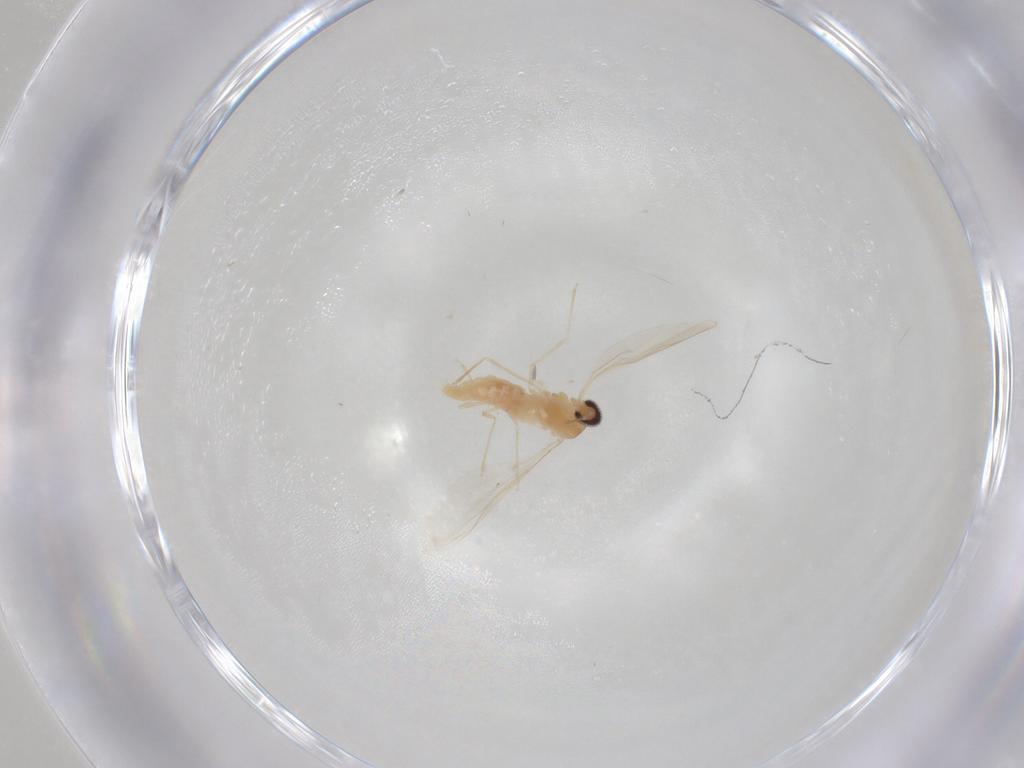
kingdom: Animalia
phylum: Arthropoda
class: Insecta
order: Diptera
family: Cecidomyiidae
